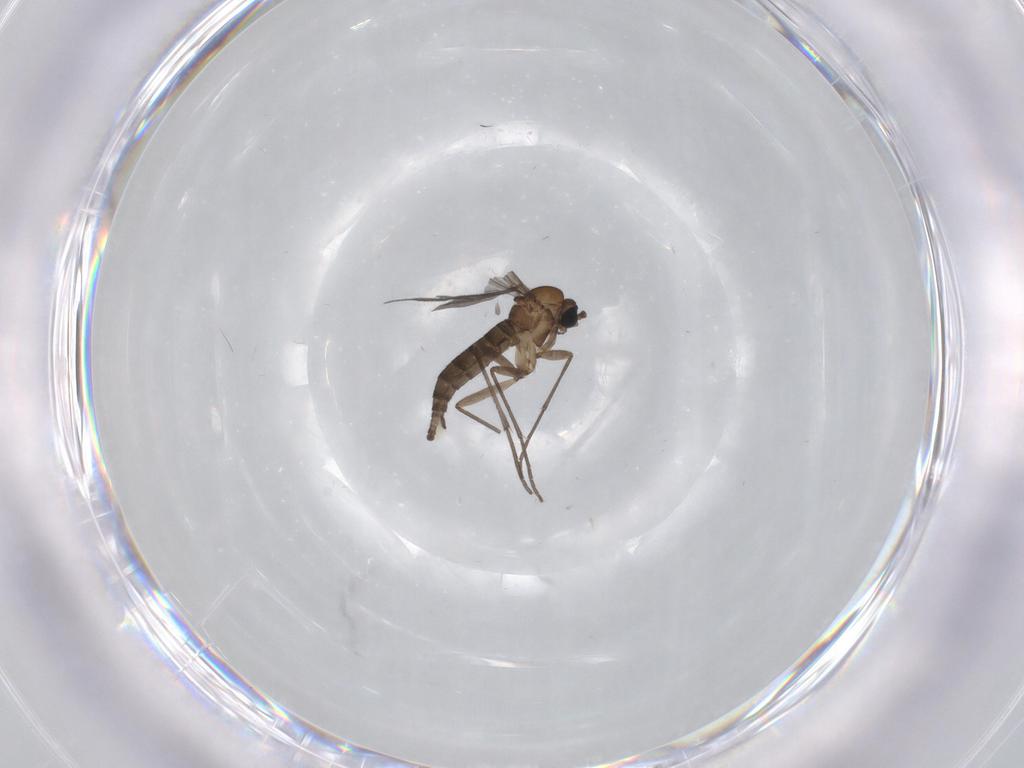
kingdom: Animalia
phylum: Arthropoda
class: Insecta
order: Diptera
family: Sciaridae
